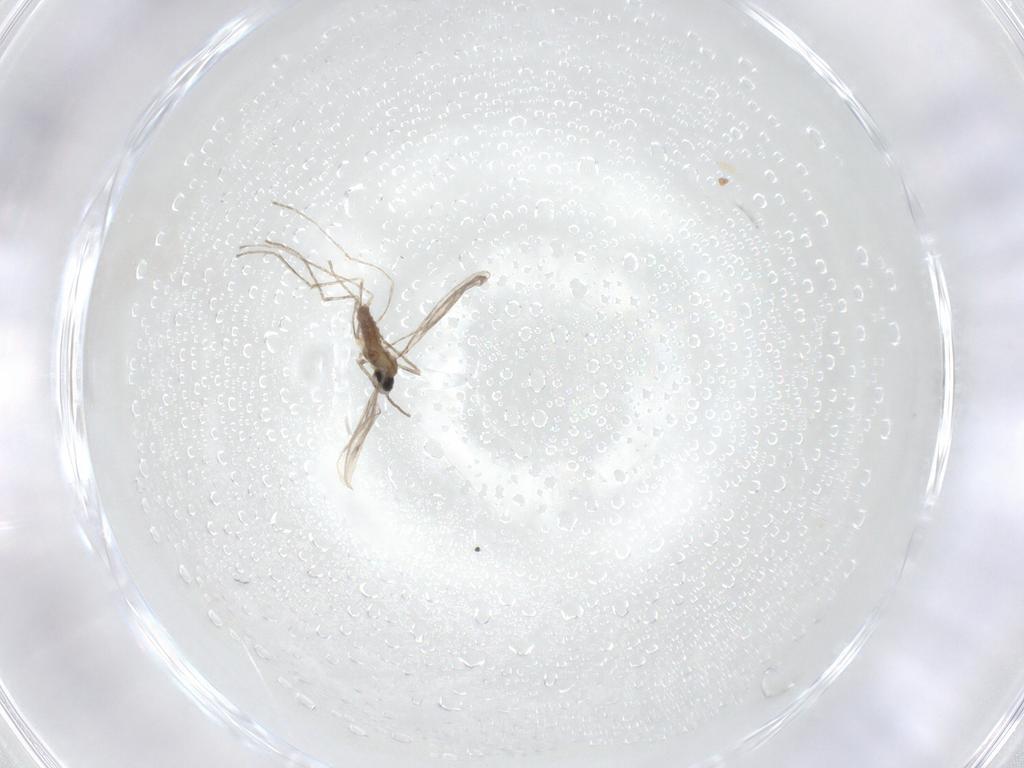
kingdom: Animalia
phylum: Arthropoda
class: Insecta
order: Diptera
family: Cecidomyiidae
